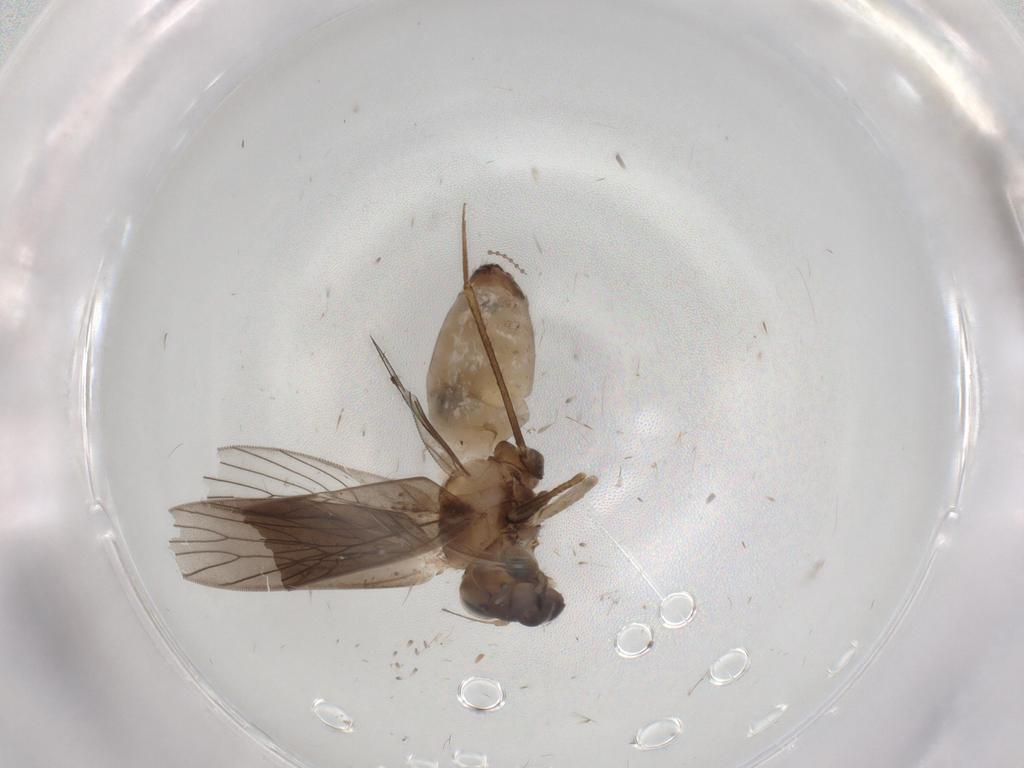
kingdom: Animalia
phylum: Arthropoda
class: Insecta
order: Psocodea
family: Lepidopsocidae
